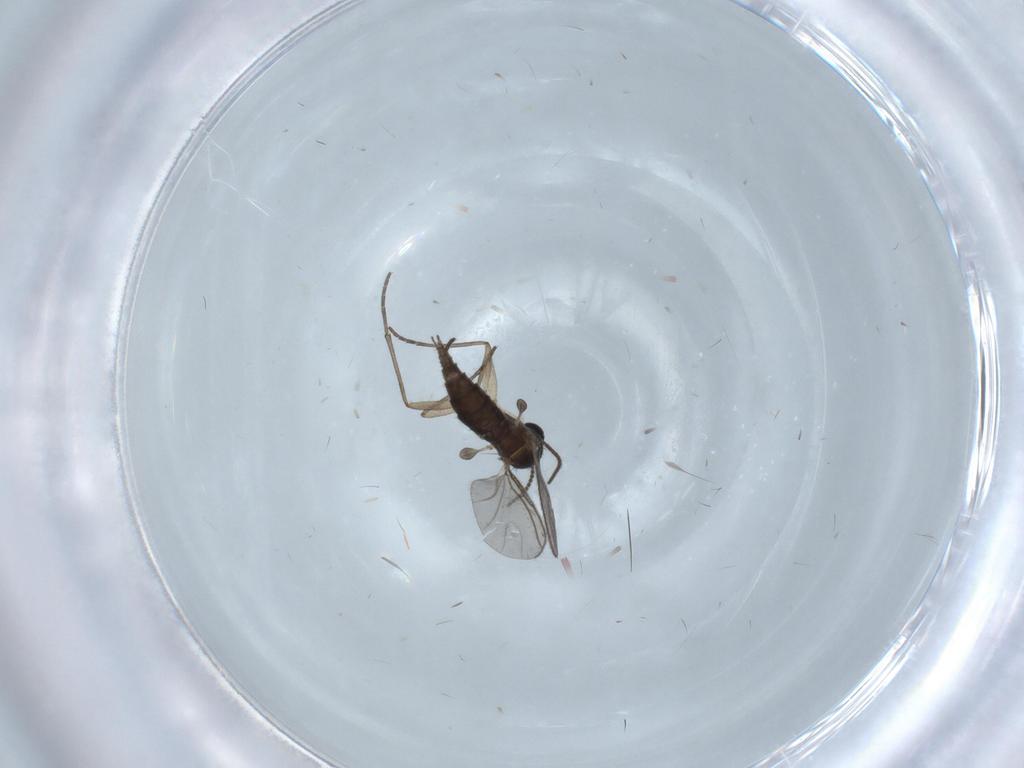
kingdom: Animalia
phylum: Arthropoda
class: Insecta
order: Diptera
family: Sciaridae
